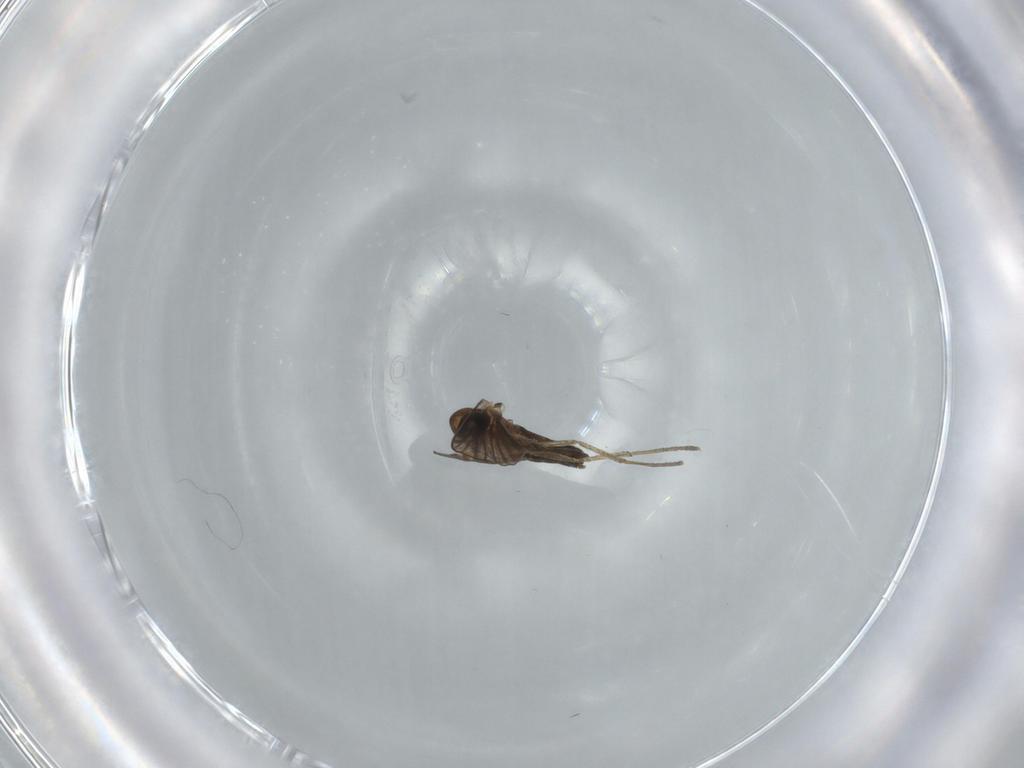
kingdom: Animalia
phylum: Arthropoda
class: Insecta
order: Diptera
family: Psychodidae
